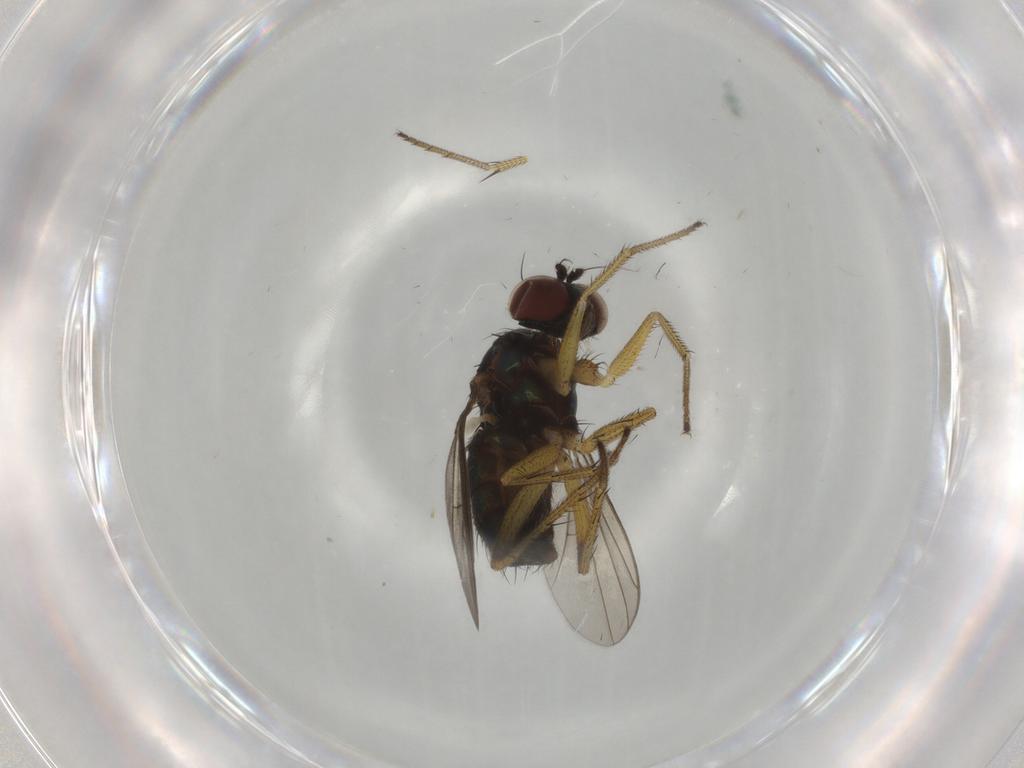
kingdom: Animalia
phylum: Arthropoda
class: Insecta
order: Diptera
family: Dolichopodidae
